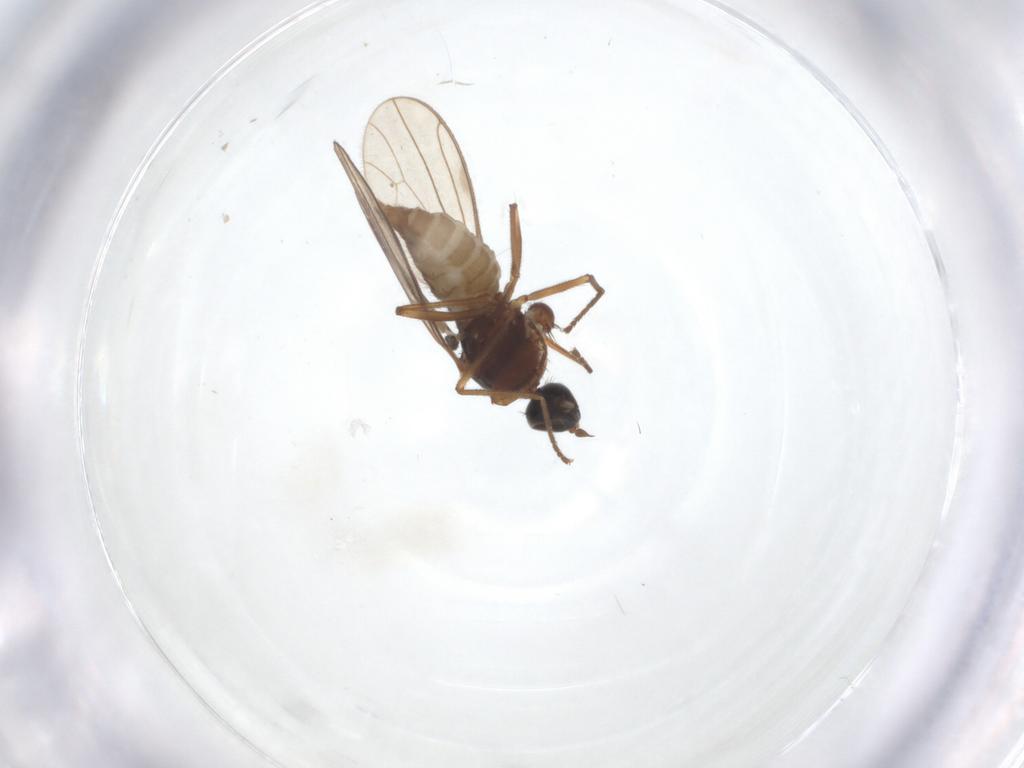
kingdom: Animalia
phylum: Arthropoda
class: Insecta
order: Diptera
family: Empididae
